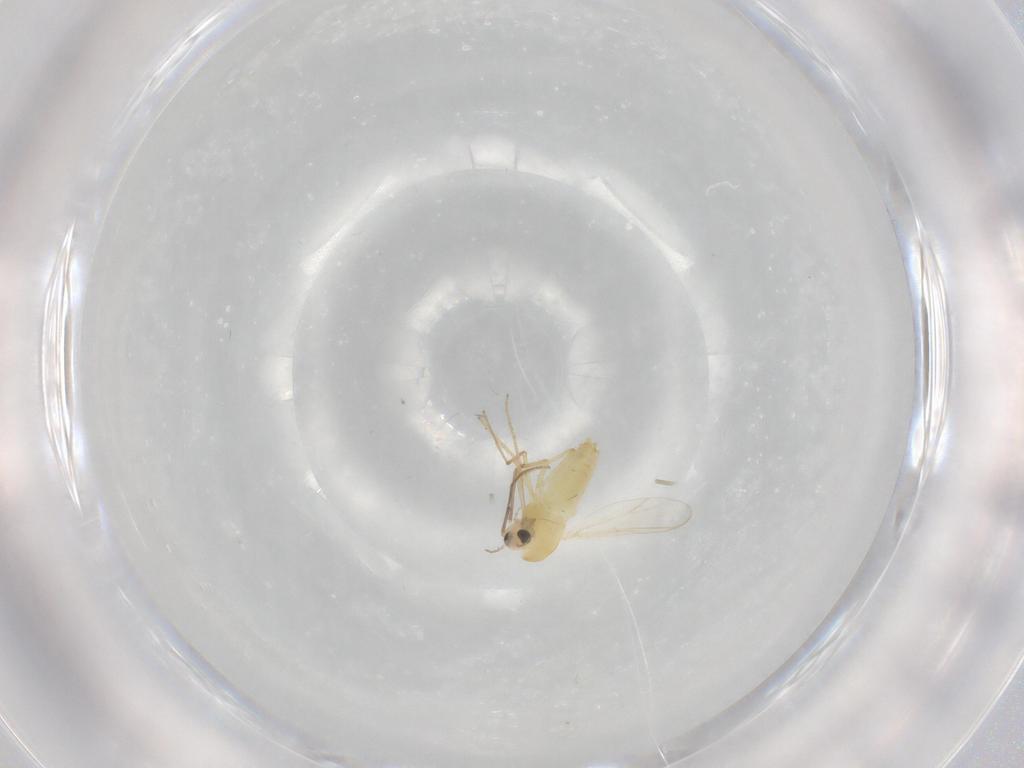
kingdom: Animalia
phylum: Arthropoda
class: Insecta
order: Diptera
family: Chironomidae
